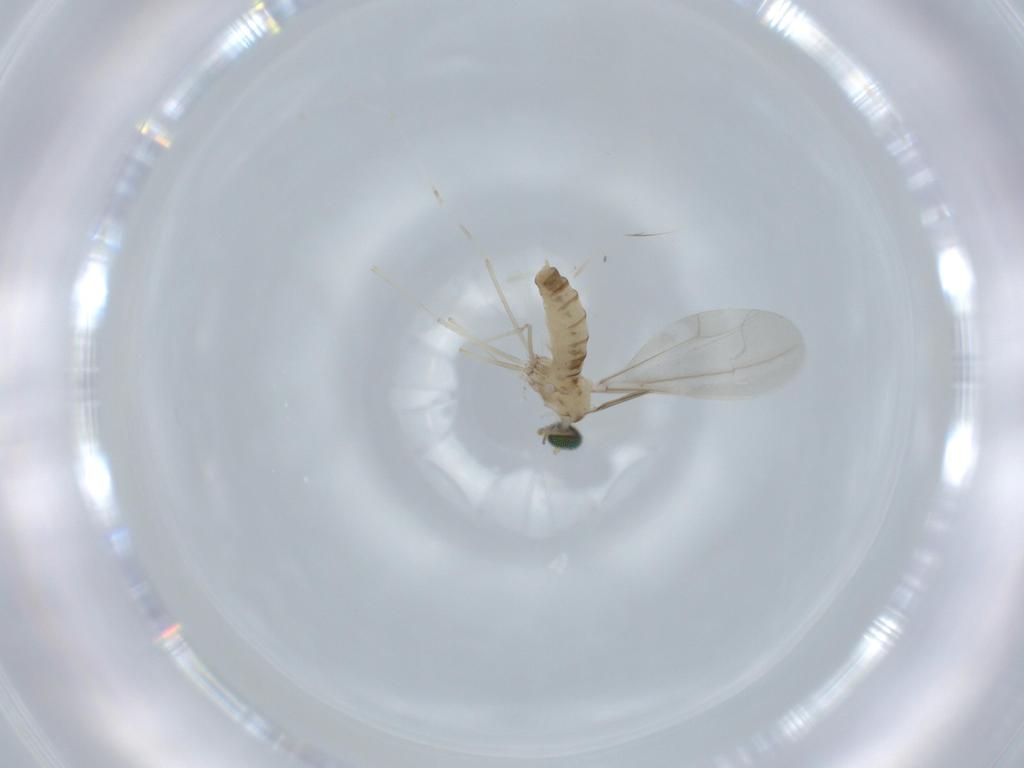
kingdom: Animalia
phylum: Arthropoda
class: Insecta
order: Diptera
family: Cecidomyiidae
